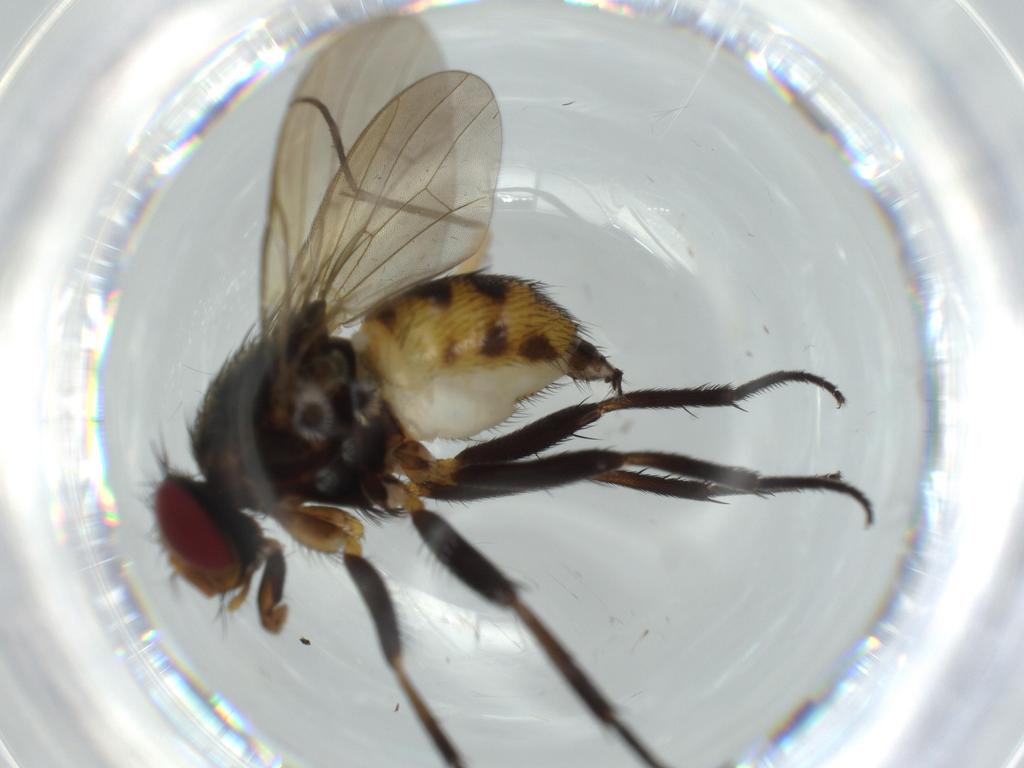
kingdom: Animalia
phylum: Arthropoda
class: Insecta
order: Diptera
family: Anthomyiidae
